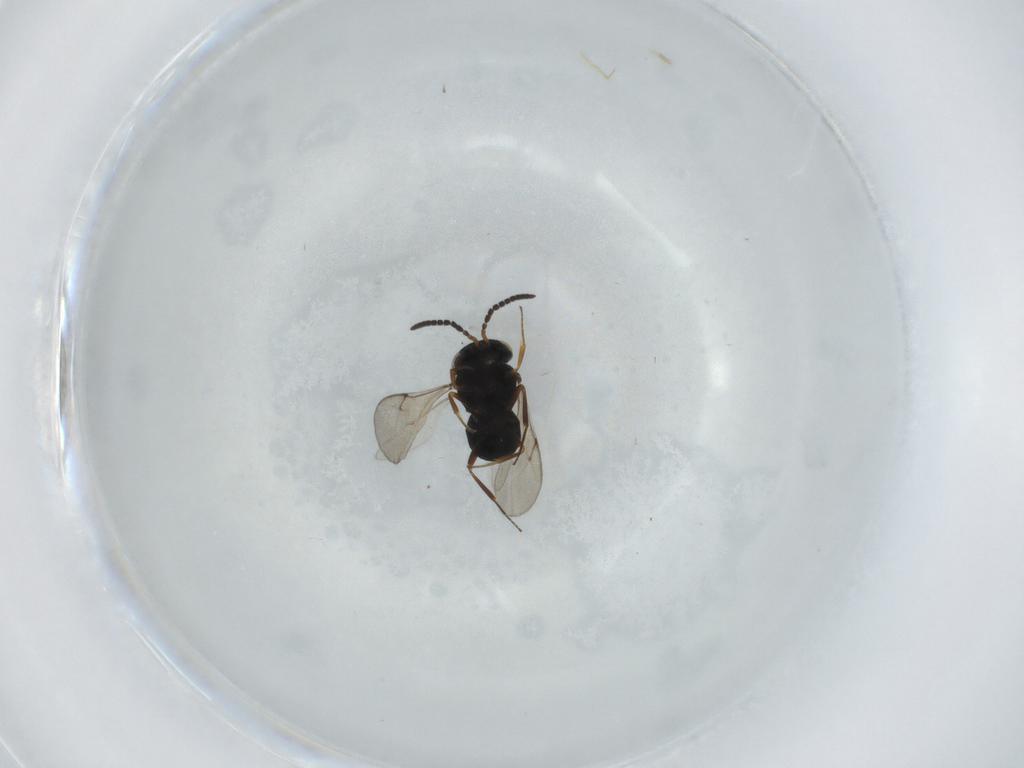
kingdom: Animalia
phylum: Arthropoda
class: Insecta
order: Hymenoptera
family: Scelionidae
